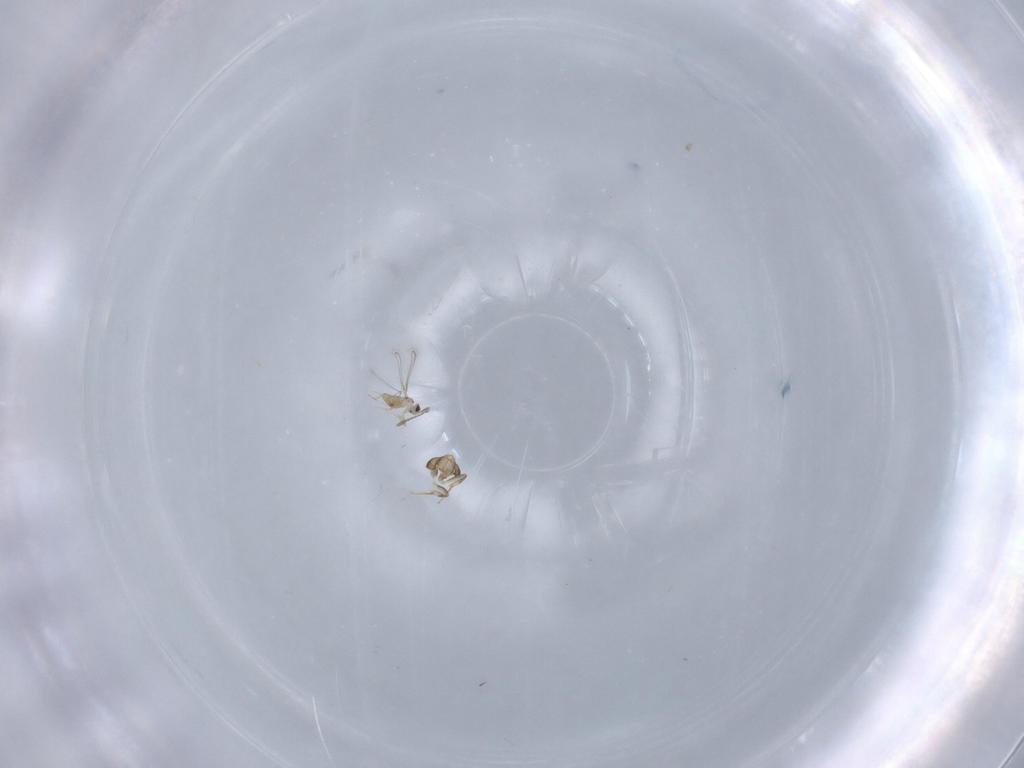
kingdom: Animalia
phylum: Arthropoda
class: Insecta
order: Hymenoptera
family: Scelionidae
